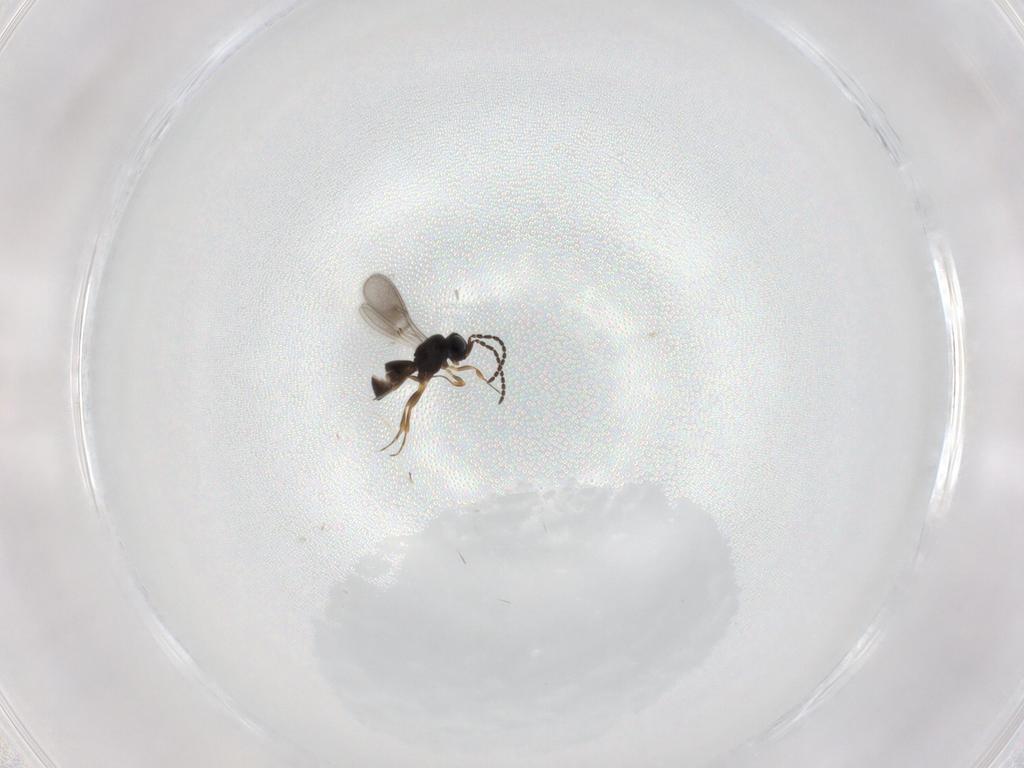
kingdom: Animalia
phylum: Arthropoda
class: Insecta
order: Hymenoptera
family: Scelionidae
